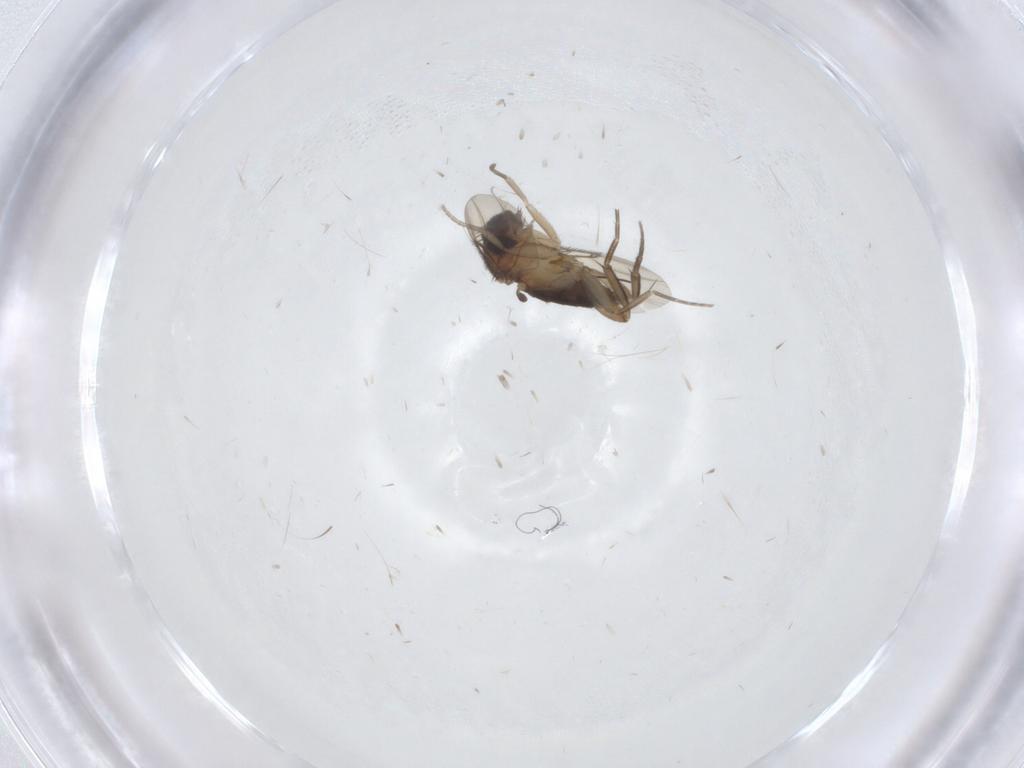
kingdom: Animalia
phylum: Arthropoda
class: Insecta
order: Diptera
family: Phoridae
